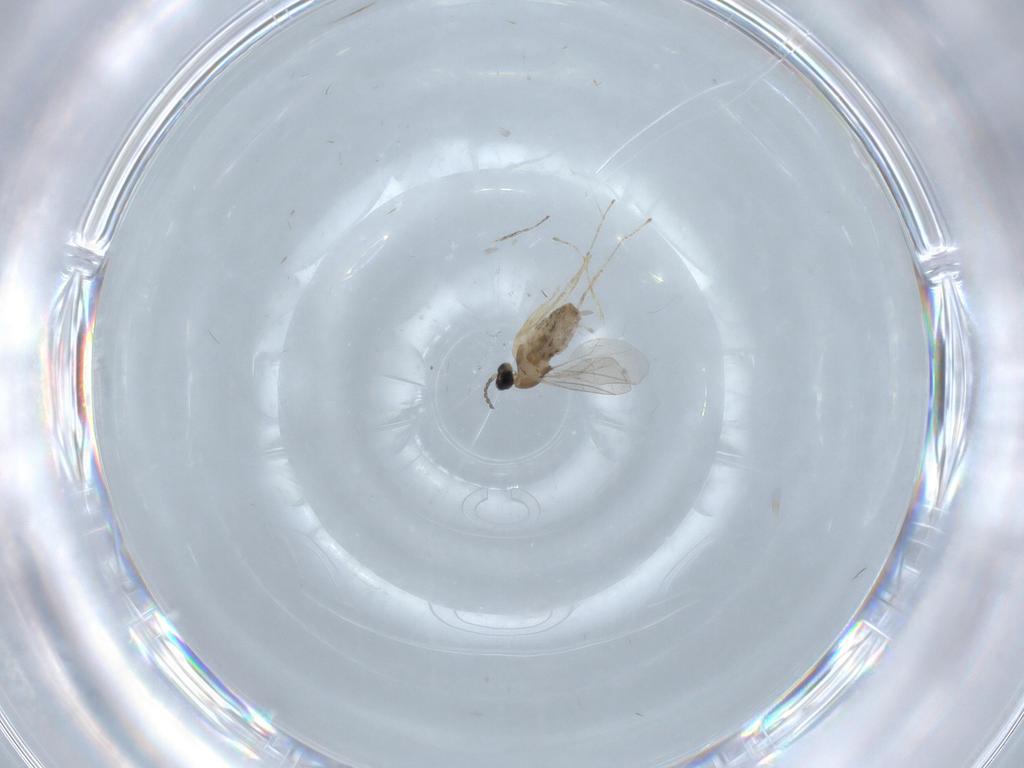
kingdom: Animalia
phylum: Arthropoda
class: Insecta
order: Diptera
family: Cecidomyiidae
